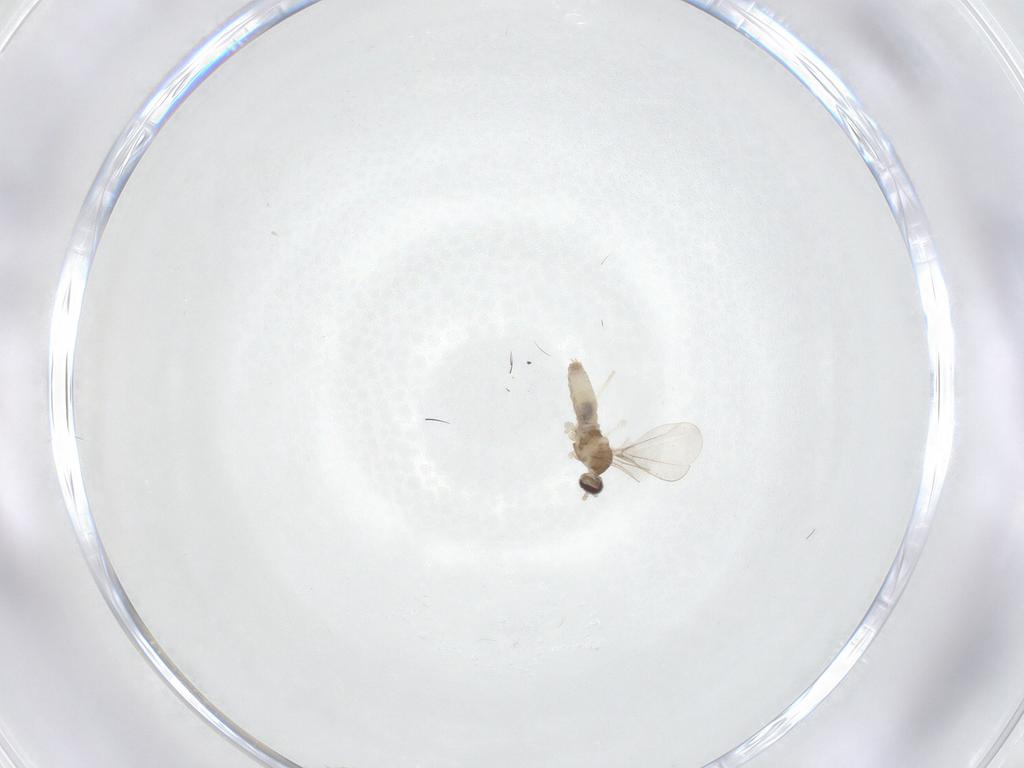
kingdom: Animalia
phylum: Arthropoda
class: Insecta
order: Diptera
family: Cecidomyiidae
